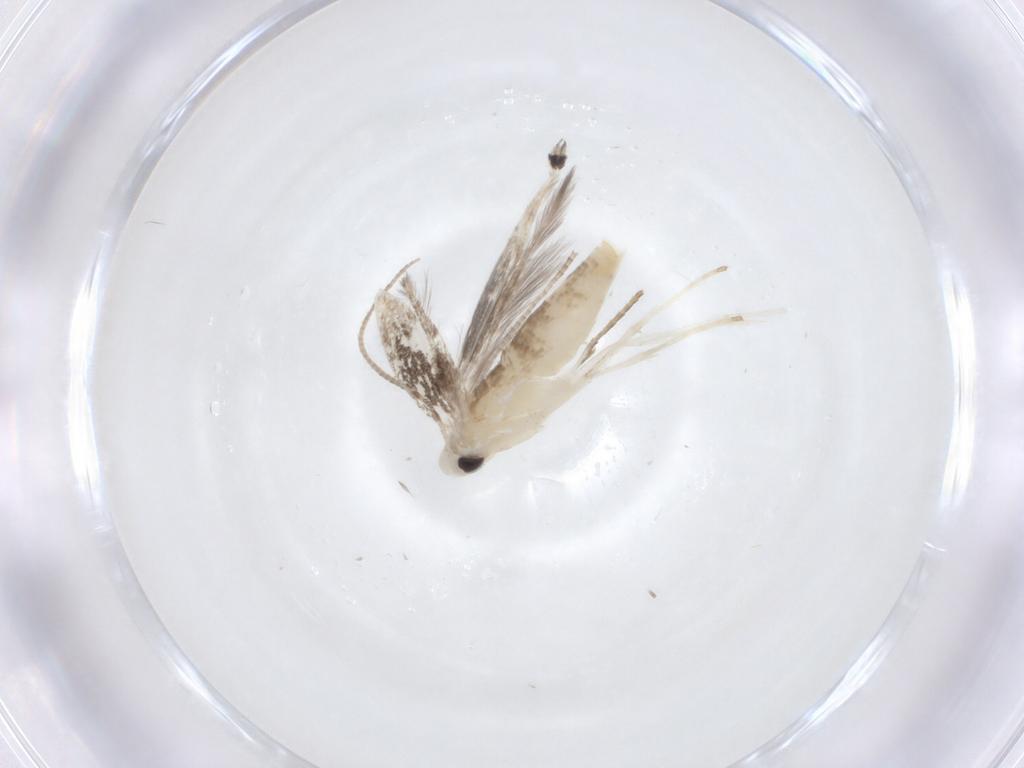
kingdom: Animalia
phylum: Arthropoda
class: Insecta
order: Lepidoptera
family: Nepticulidae
